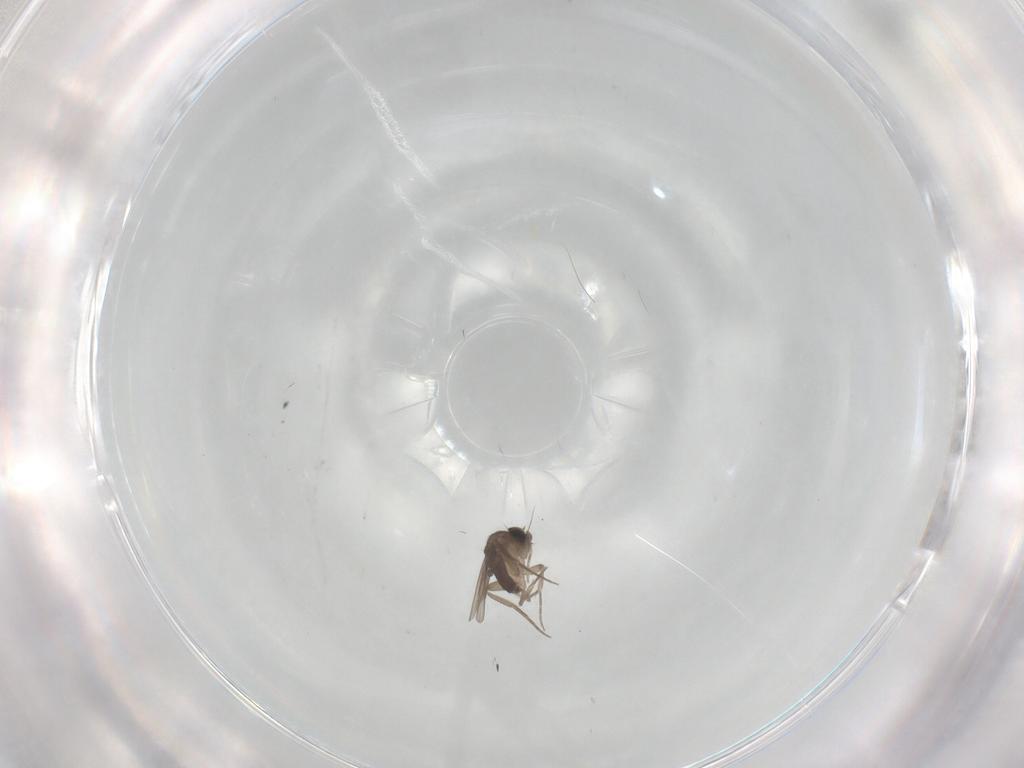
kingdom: Animalia
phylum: Arthropoda
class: Insecta
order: Diptera
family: Phoridae
